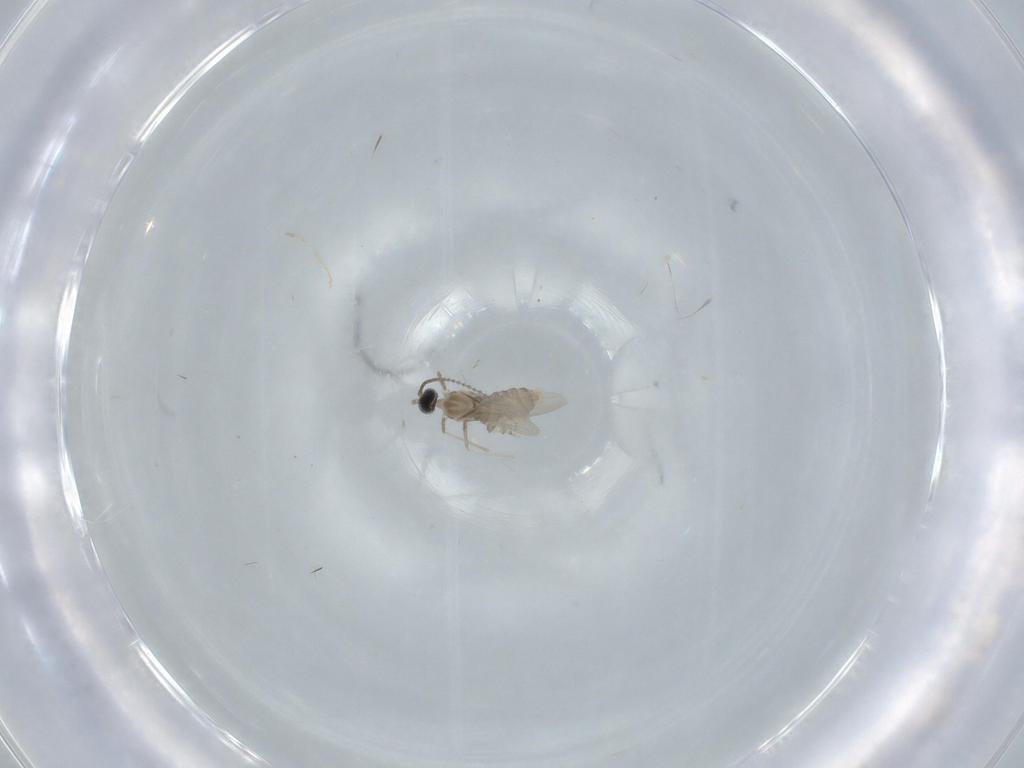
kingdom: Animalia
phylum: Arthropoda
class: Insecta
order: Diptera
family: Cecidomyiidae
